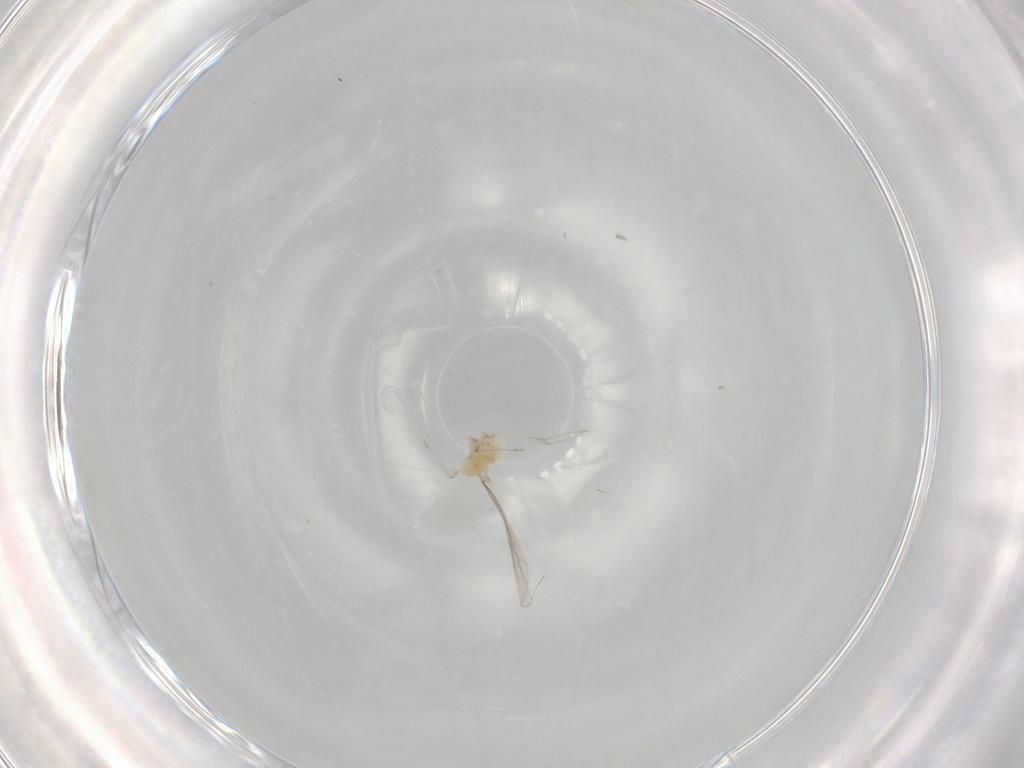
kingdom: Animalia
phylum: Arthropoda
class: Insecta
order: Diptera
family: Cecidomyiidae
